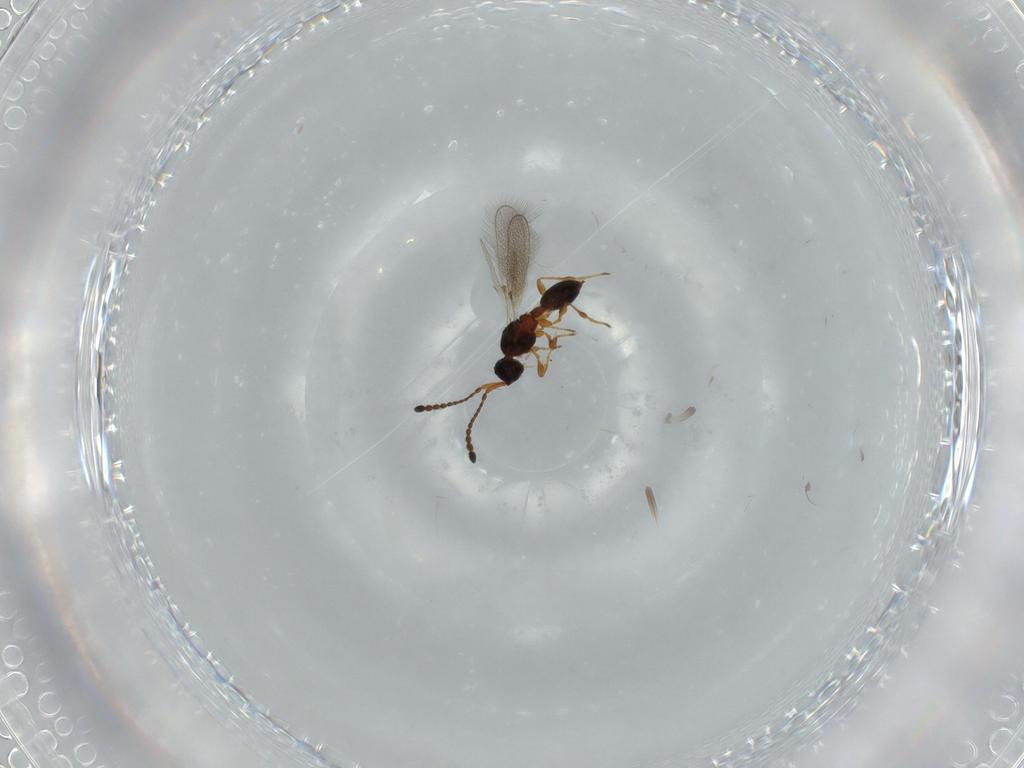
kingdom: Animalia
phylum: Arthropoda
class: Insecta
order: Hymenoptera
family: Diapriidae
